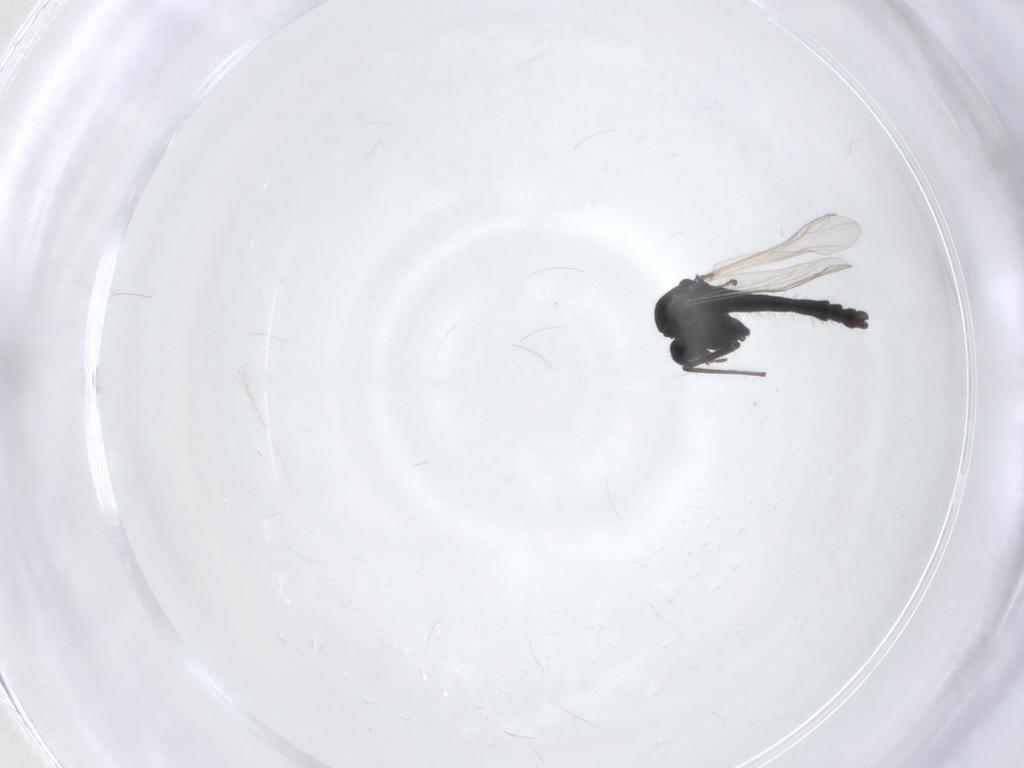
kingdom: Animalia
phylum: Arthropoda
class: Insecta
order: Diptera
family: Chironomidae
